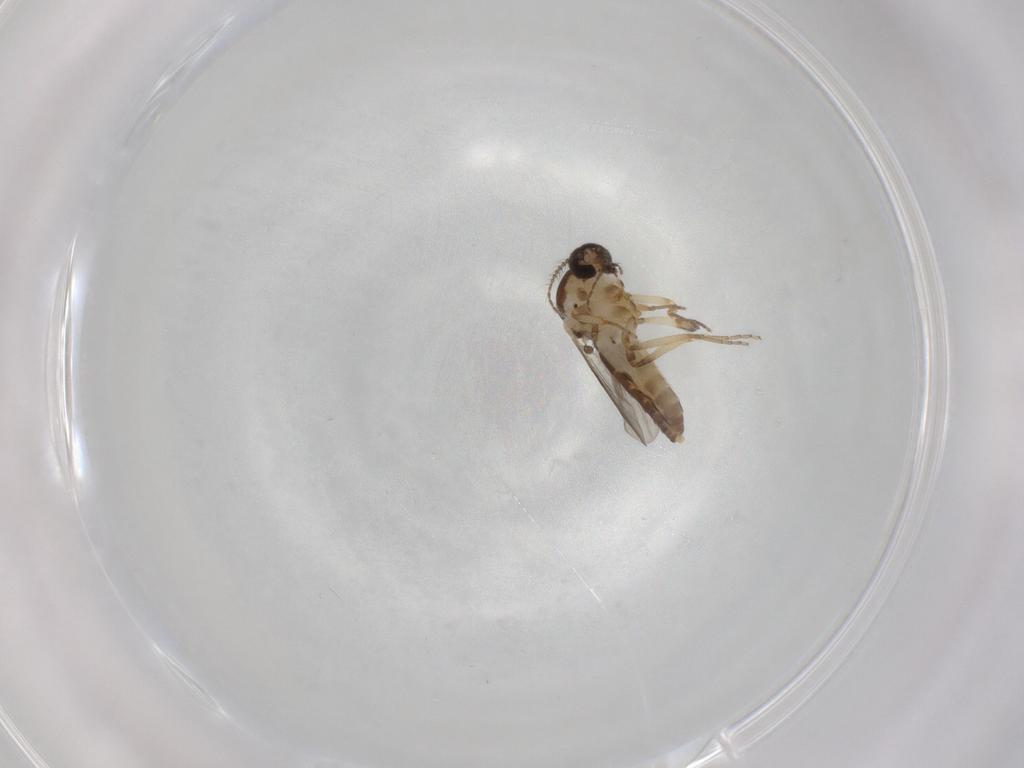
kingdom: Animalia
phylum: Arthropoda
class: Insecta
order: Diptera
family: Ceratopogonidae
